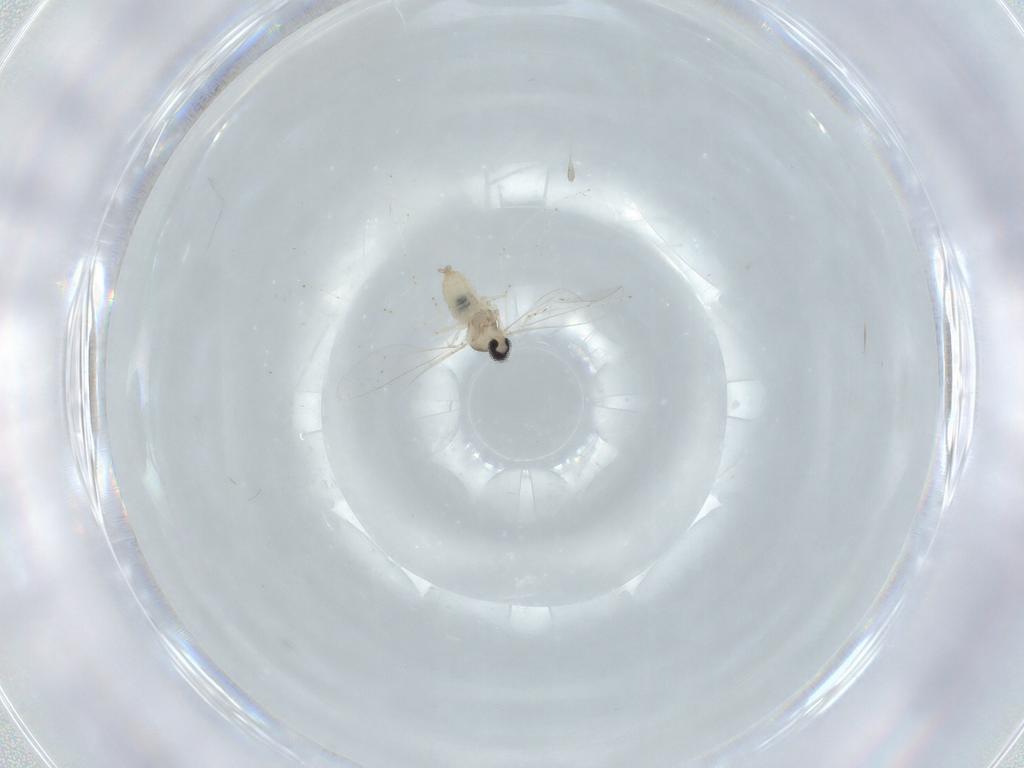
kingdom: Animalia
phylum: Arthropoda
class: Insecta
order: Diptera
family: Cecidomyiidae
